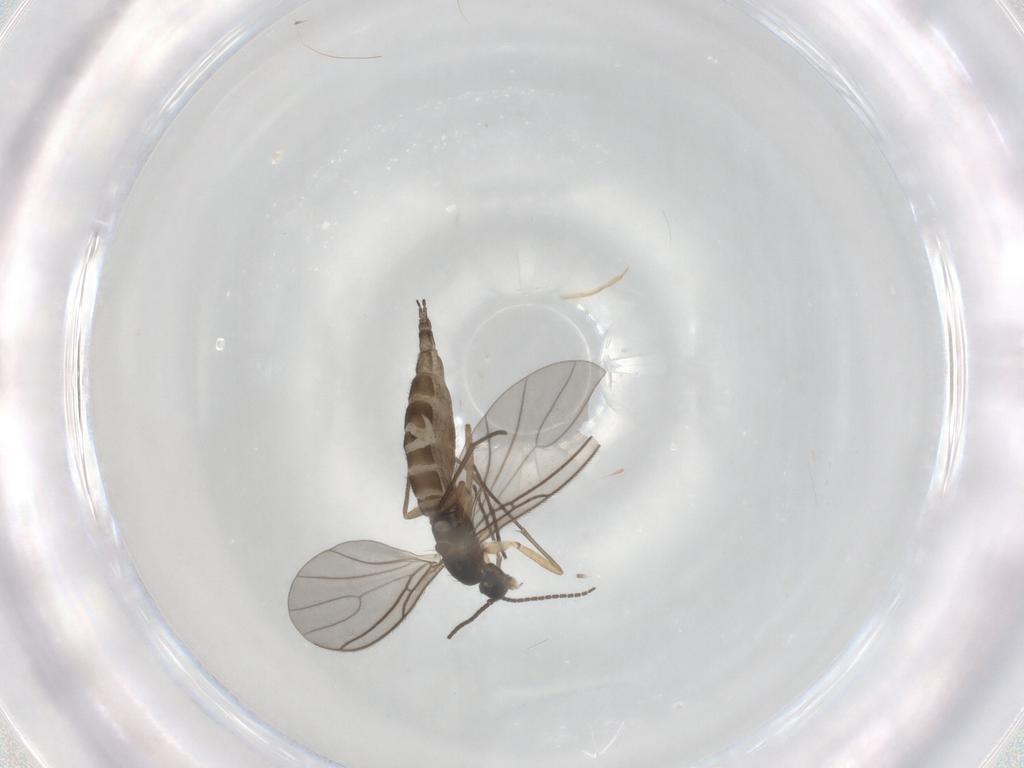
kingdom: Animalia
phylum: Arthropoda
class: Insecta
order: Diptera
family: Sciaridae
